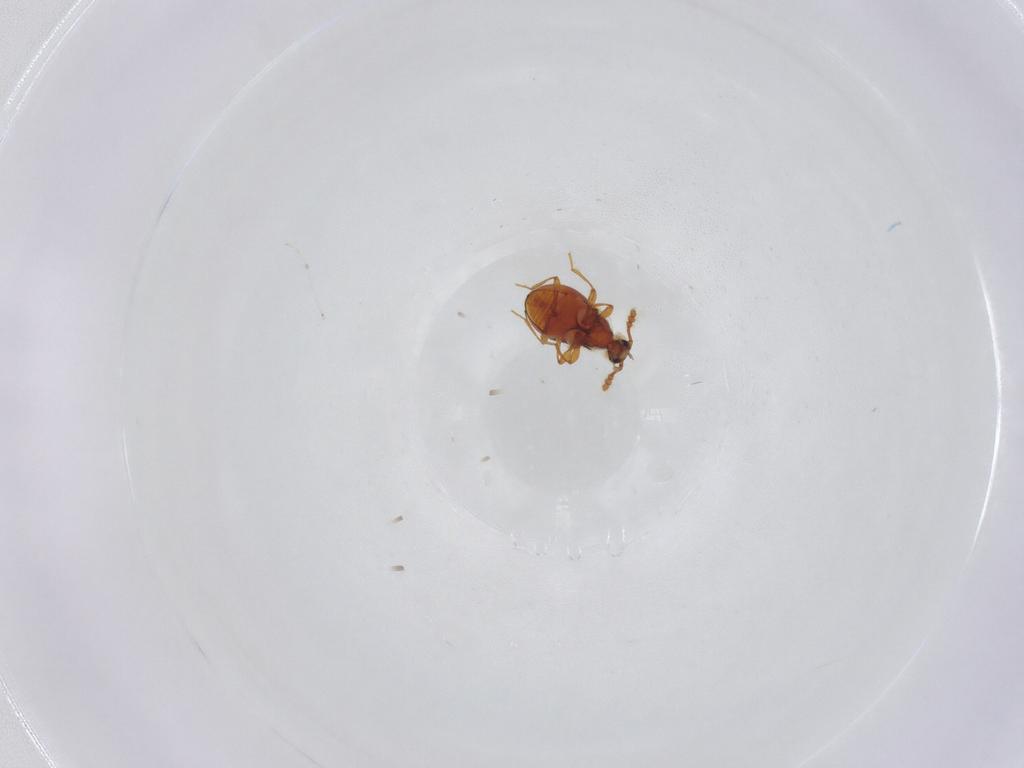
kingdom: Animalia
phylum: Arthropoda
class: Insecta
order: Coleoptera
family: Staphylinidae
